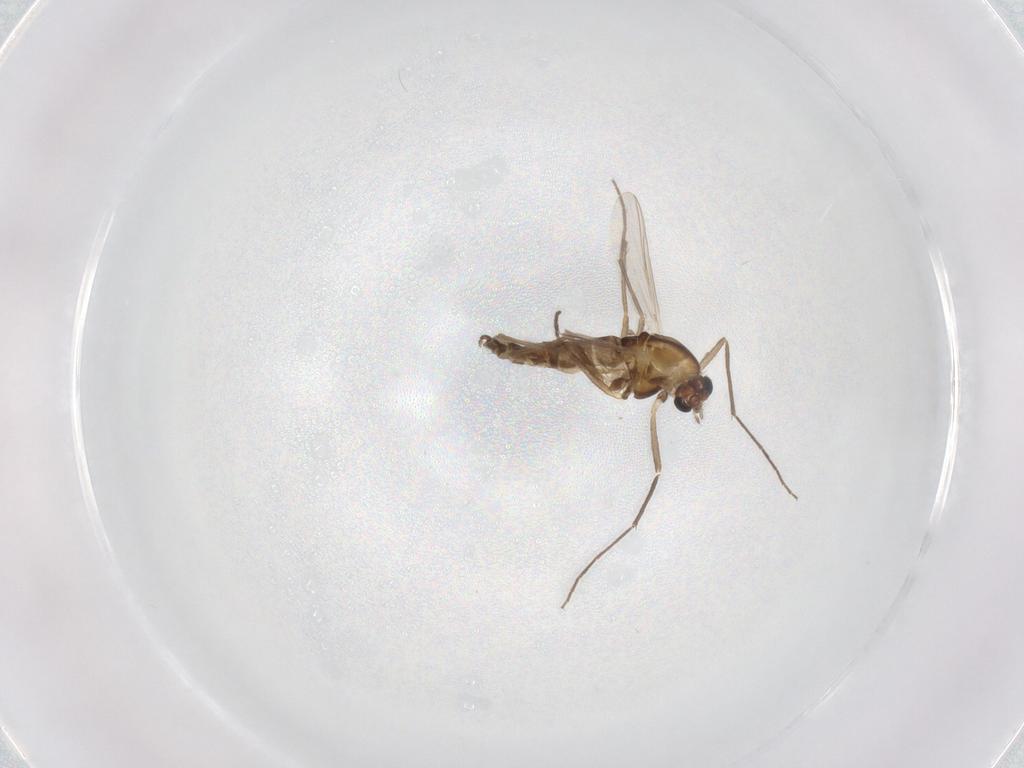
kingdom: Animalia
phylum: Arthropoda
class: Insecta
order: Diptera
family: Chironomidae
